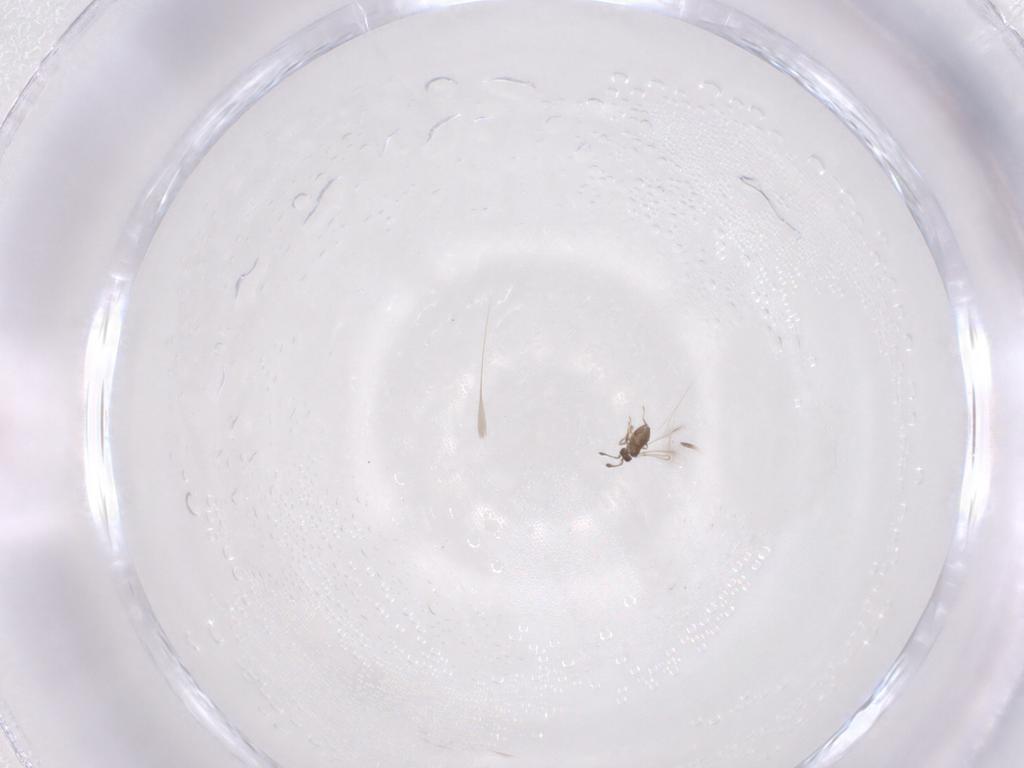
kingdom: Animalia
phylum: Arthropoda
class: Insecta
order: Hymenoptera
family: Mymaridae
